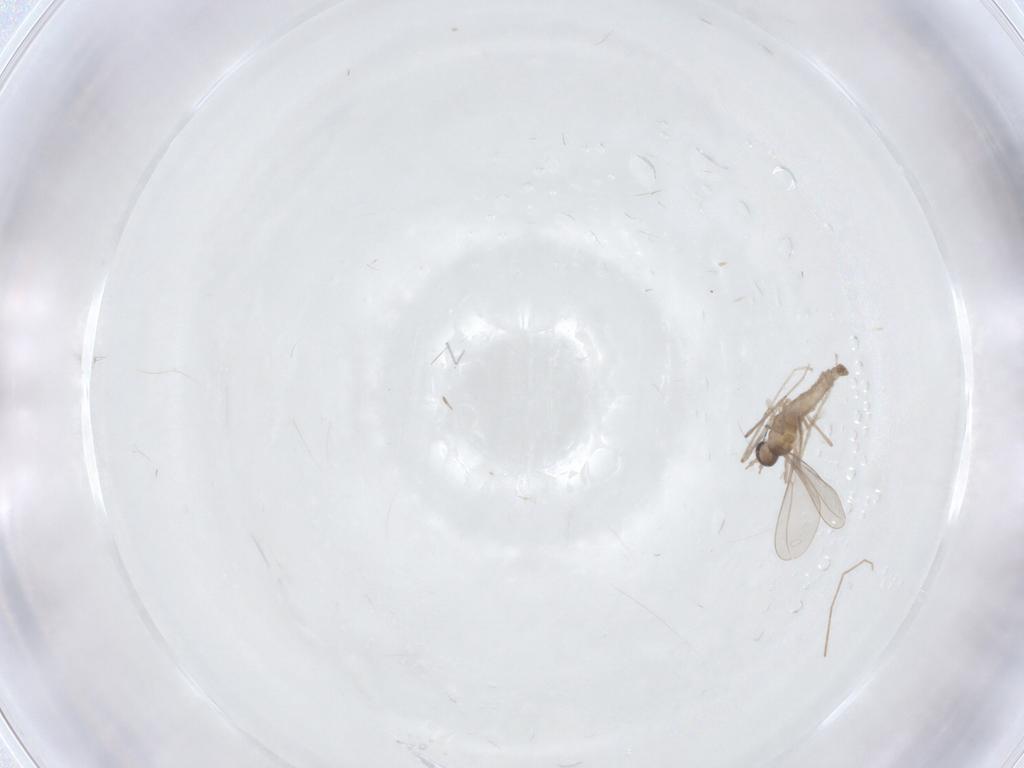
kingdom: Animalia
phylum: Arthropoda
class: Insecta
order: Diptera
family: Cecidomyiidae
